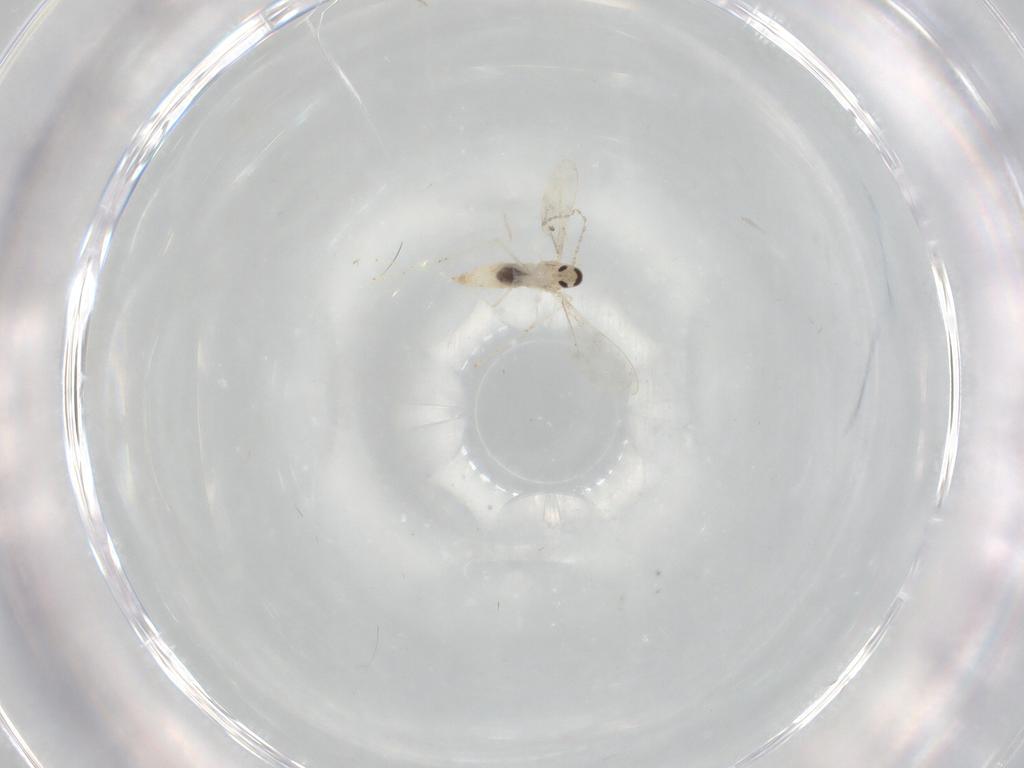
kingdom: Animalia
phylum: Arthropoda
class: Insecta
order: Diptera
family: Cecidomyiidae
